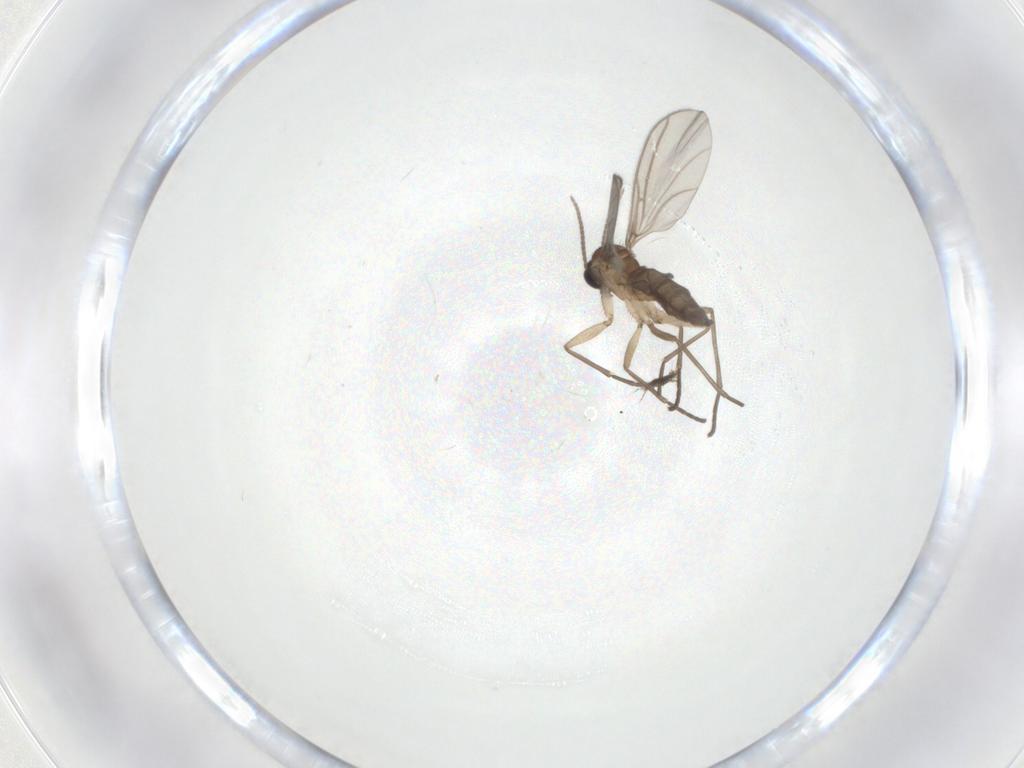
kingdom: Animalia
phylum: Arthropoda
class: Insecta
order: Diptera
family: Sciaridae
